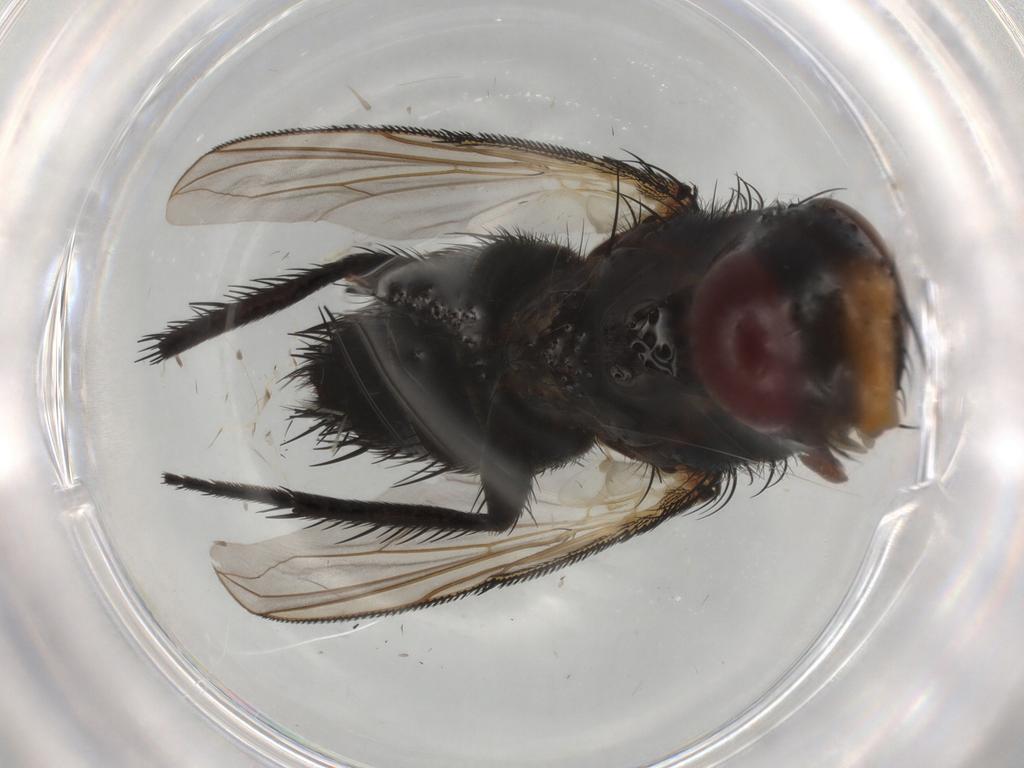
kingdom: Animalia
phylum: Arthropoda
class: Insecta
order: Diptera
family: Tachinidae
